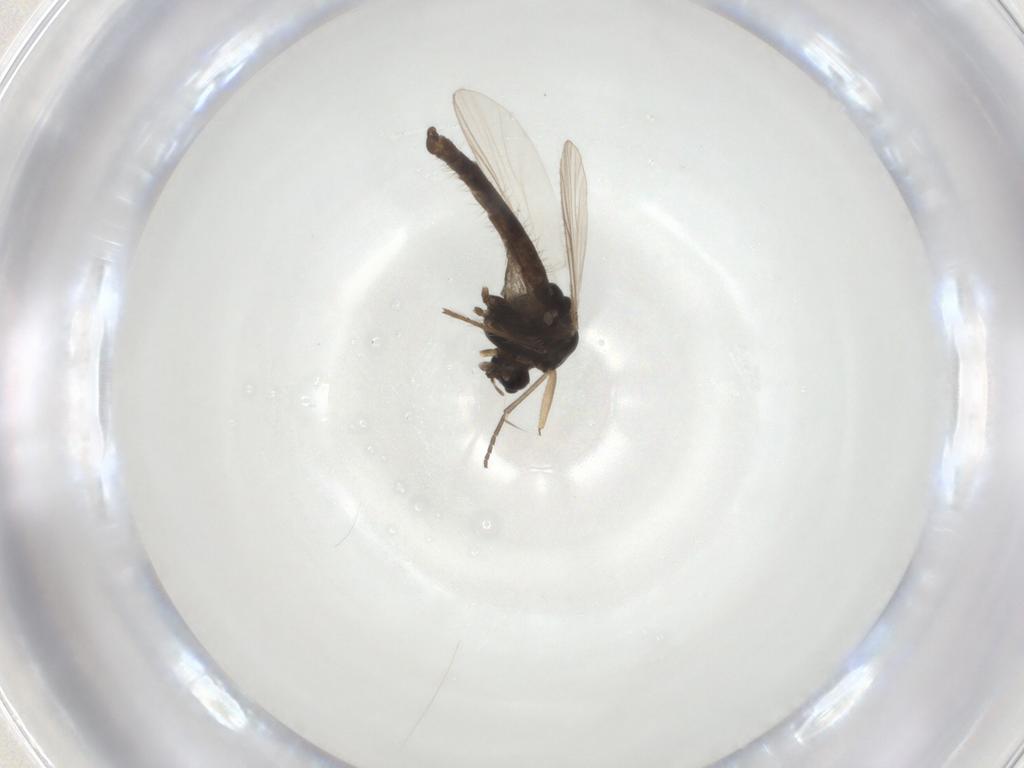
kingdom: Animalia
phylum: Arthropoda
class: Insecta
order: Diptera
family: Chironomidae
